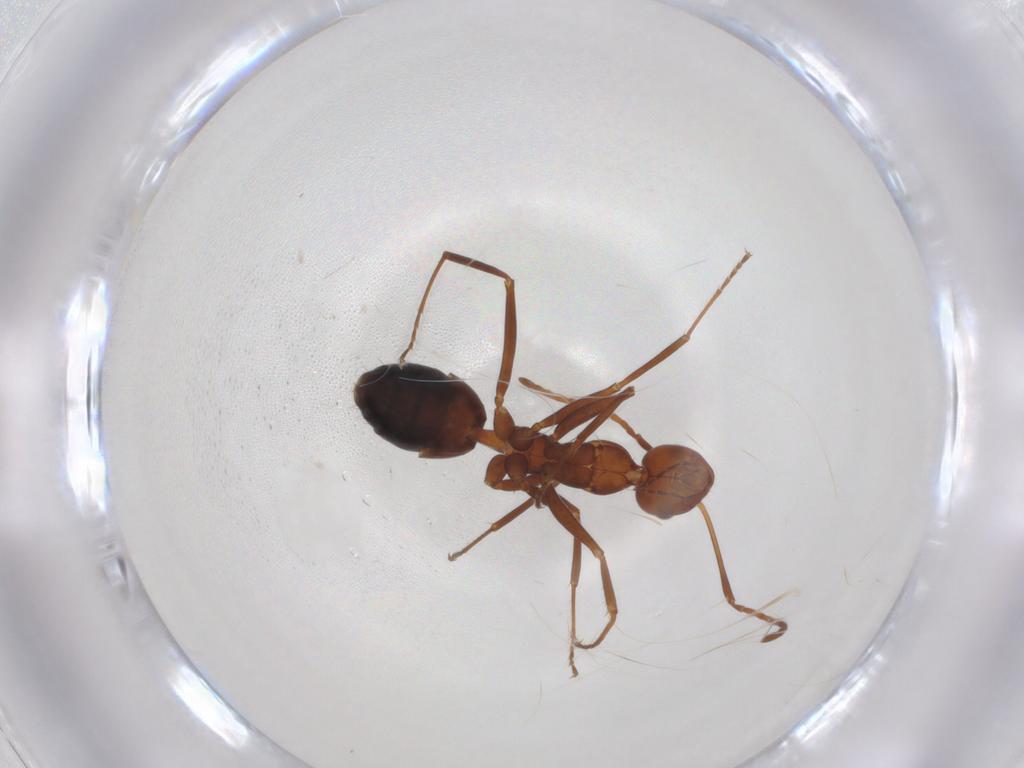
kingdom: Animalia
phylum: Arthropoda
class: Insecta
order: Hymenoptera
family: Formicidae
